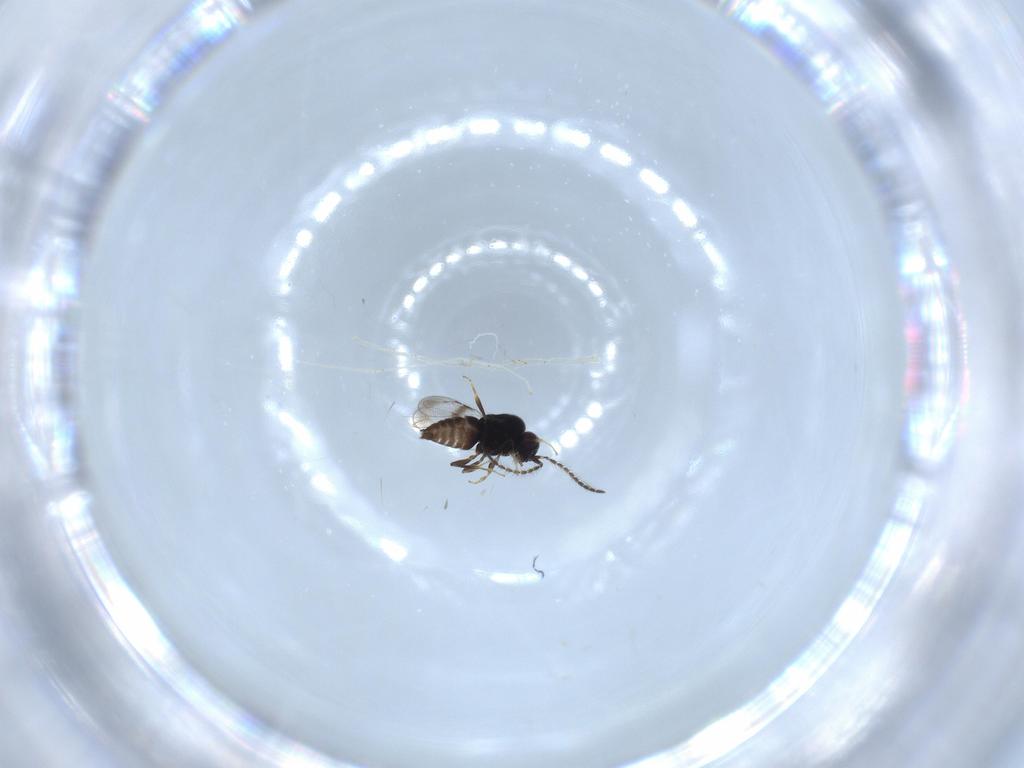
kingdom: Animalia
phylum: Arthropoda
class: Insecta
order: Hymenoptera
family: Ceraphronidae
